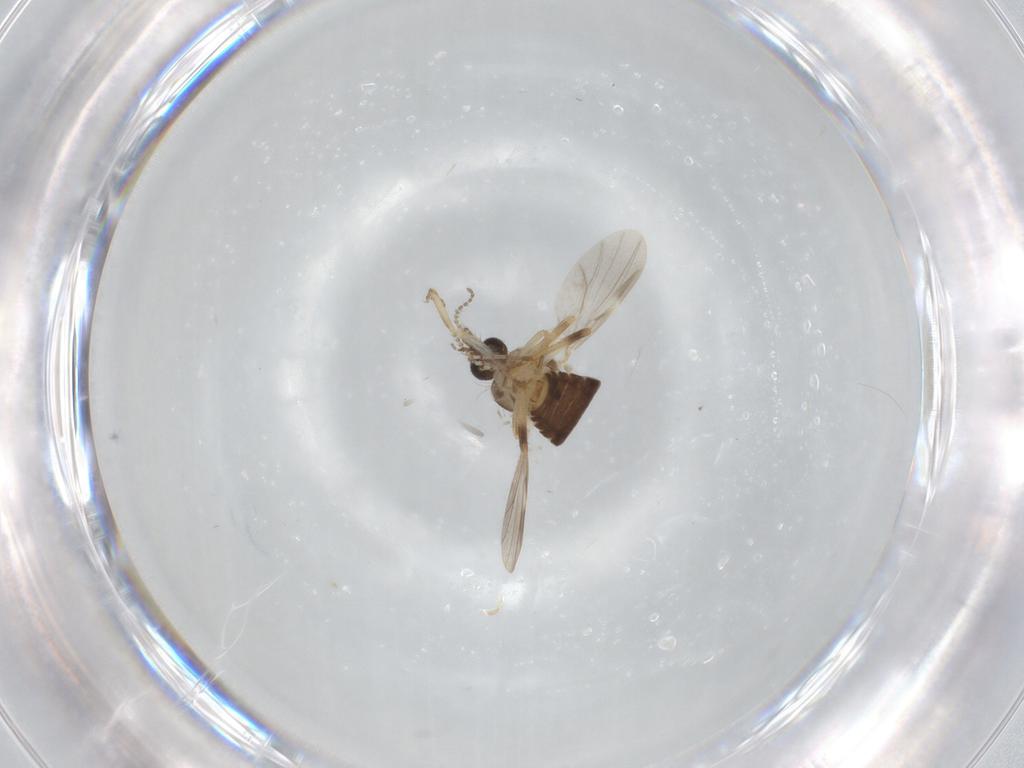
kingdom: Animalia
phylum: Arthropoda
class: Insecta
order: Diptera
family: Ceratopogonidae
